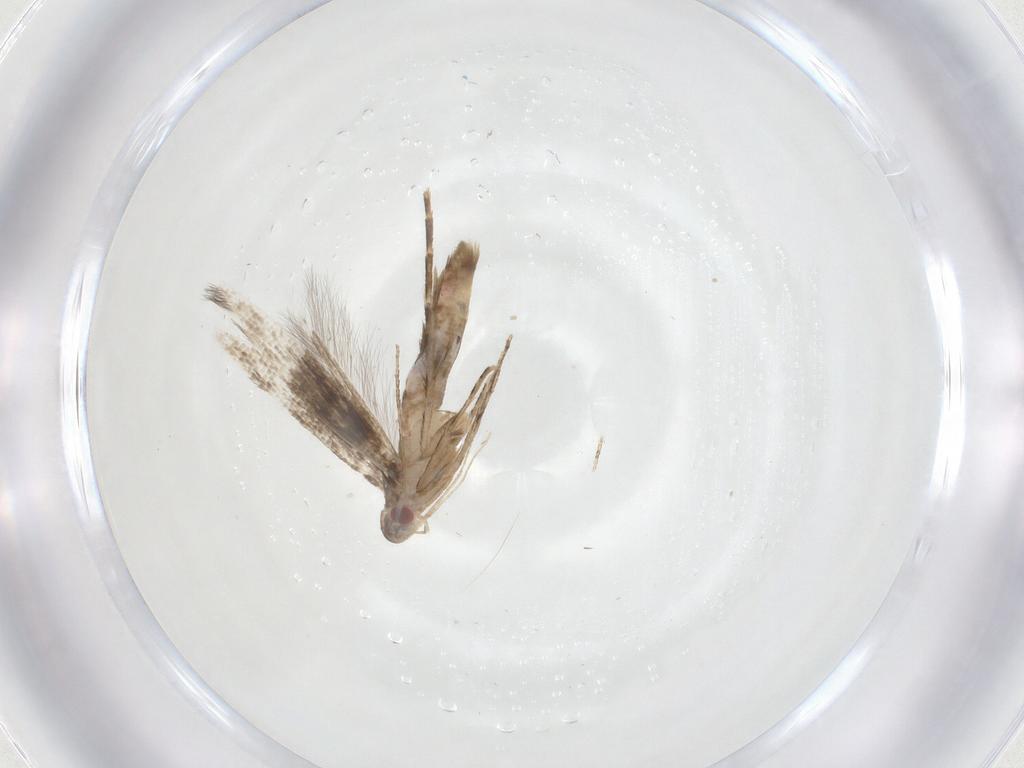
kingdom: Animalia
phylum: Arthropoda
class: Insecta
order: Lepidoptera
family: Cosmopterigidae
